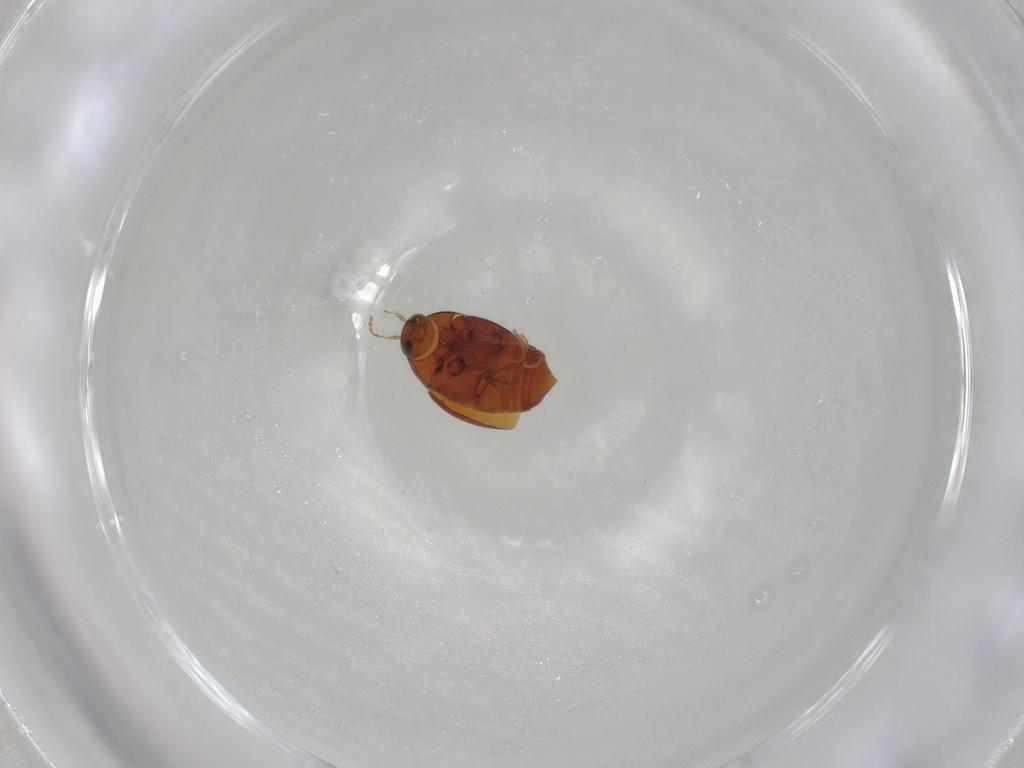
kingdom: Animalia
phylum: Arthropoda
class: Insecta
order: Coleoptera
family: Staphylinidae
